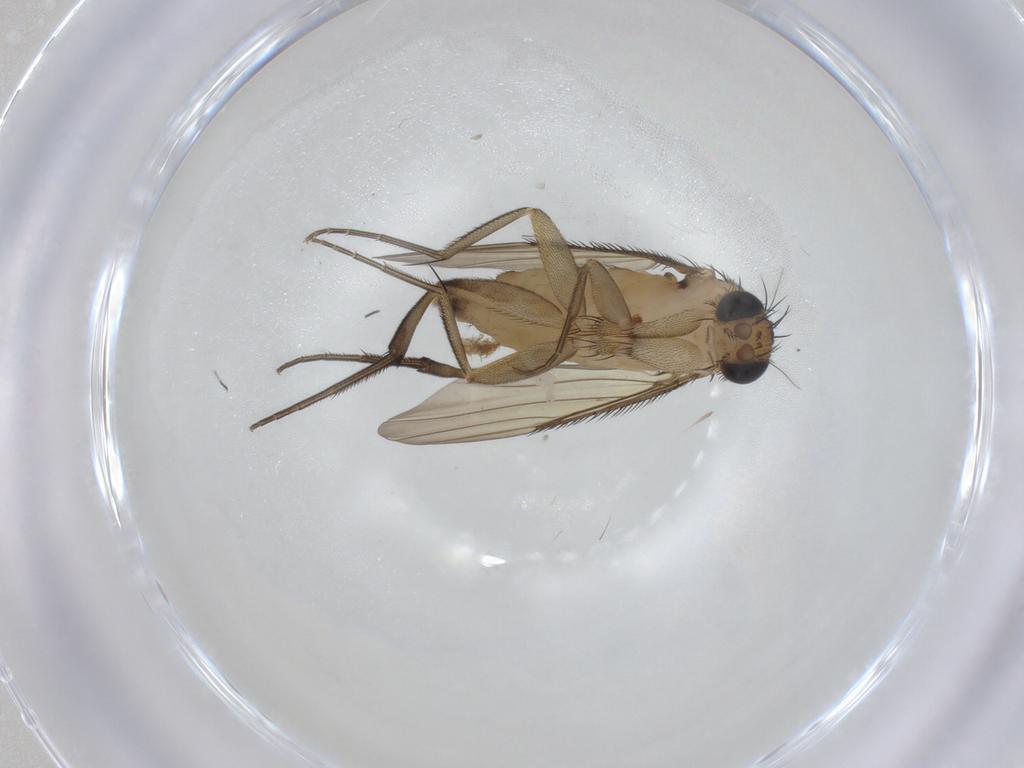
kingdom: Animalia
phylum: Arthropoda
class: Insecta
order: Diptera
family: Phoridae
